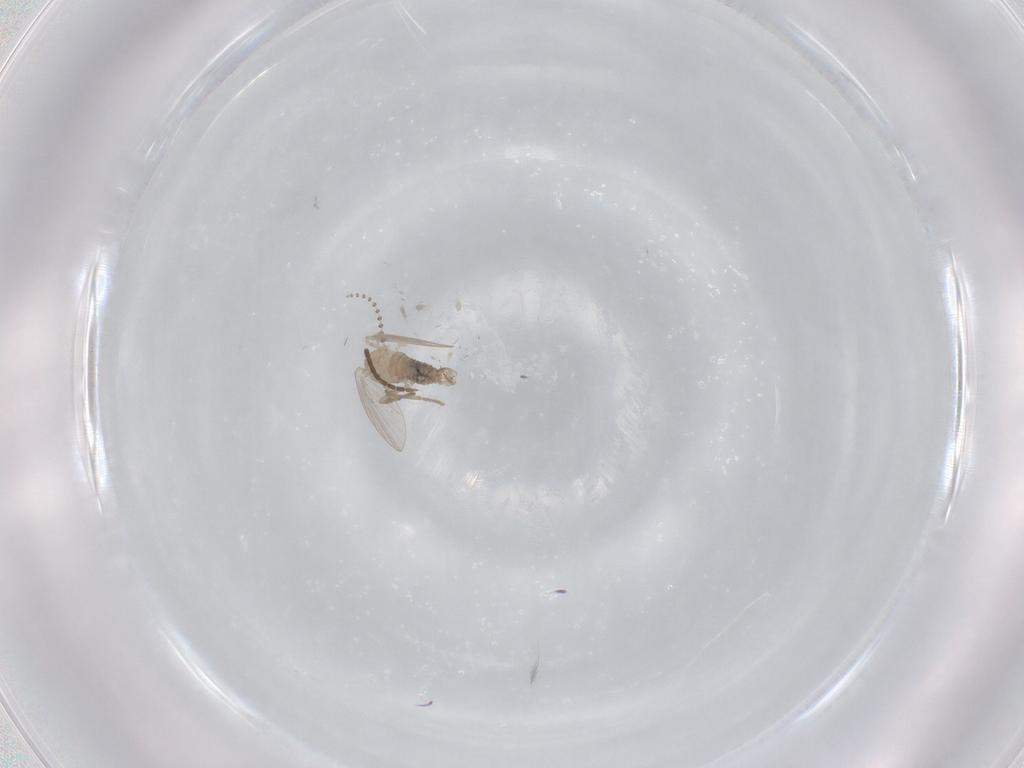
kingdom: Animalia
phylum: Arthropoda
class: Insecta
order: Diptera
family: Psychodidae
